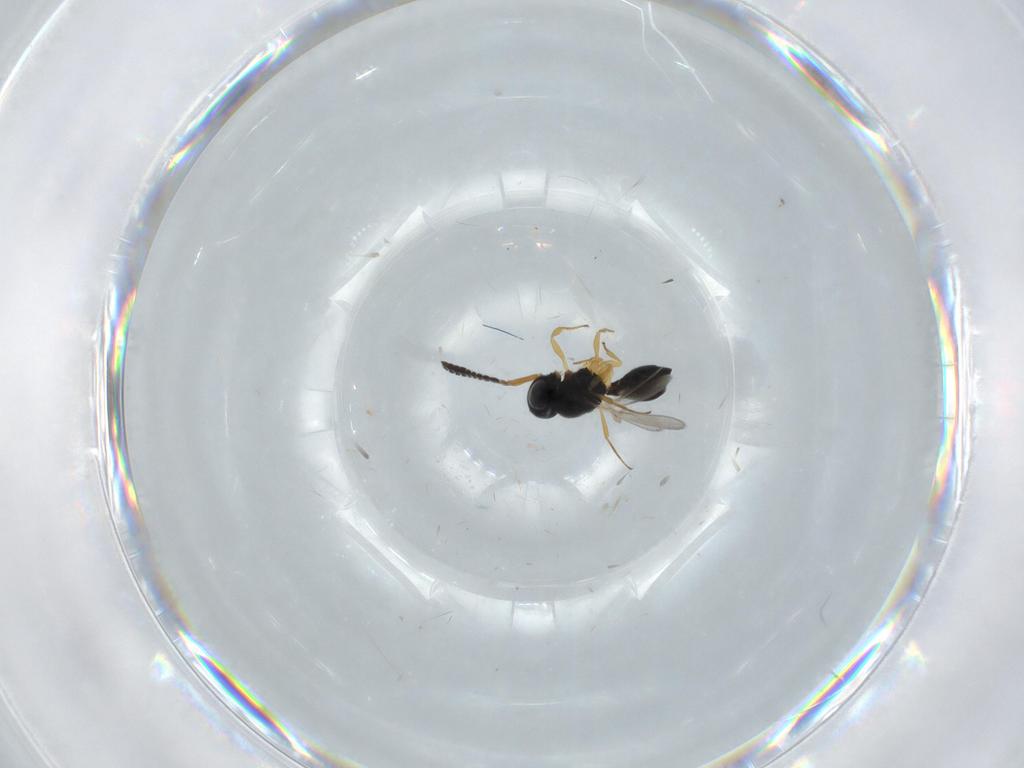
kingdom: Animalia
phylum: Arthropoda
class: Insecta
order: Hymenoptera
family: Scelionidae
